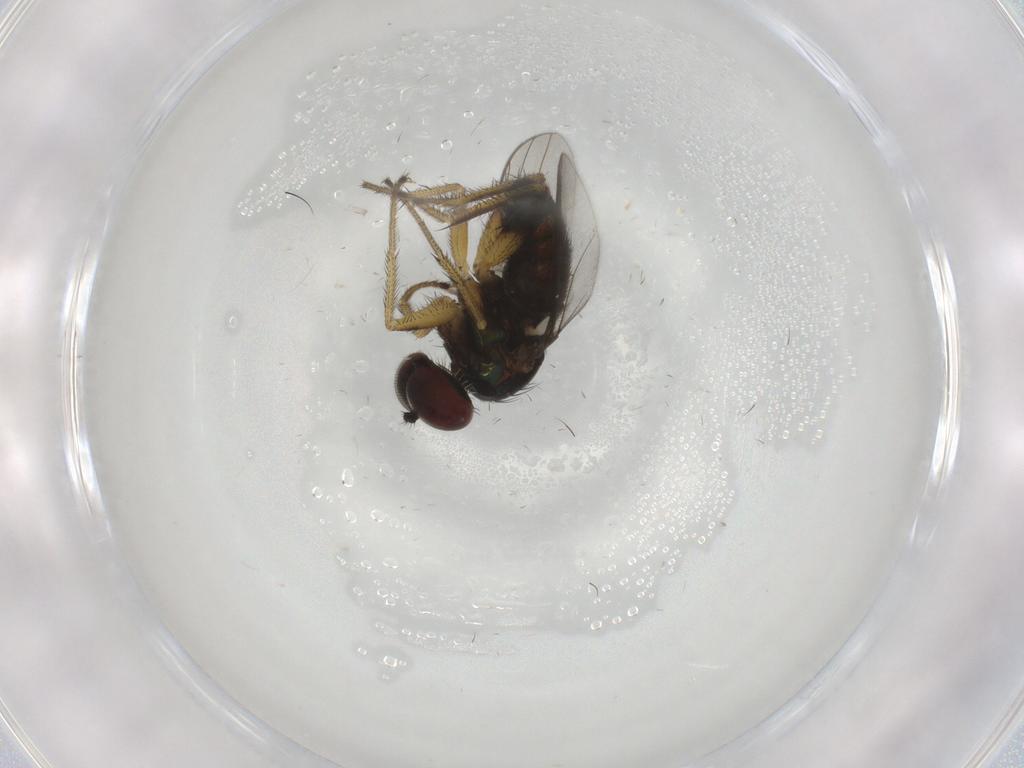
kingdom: Animalia
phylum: Arthropoda
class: Insecta
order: Diptera
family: Dolichopodidae
